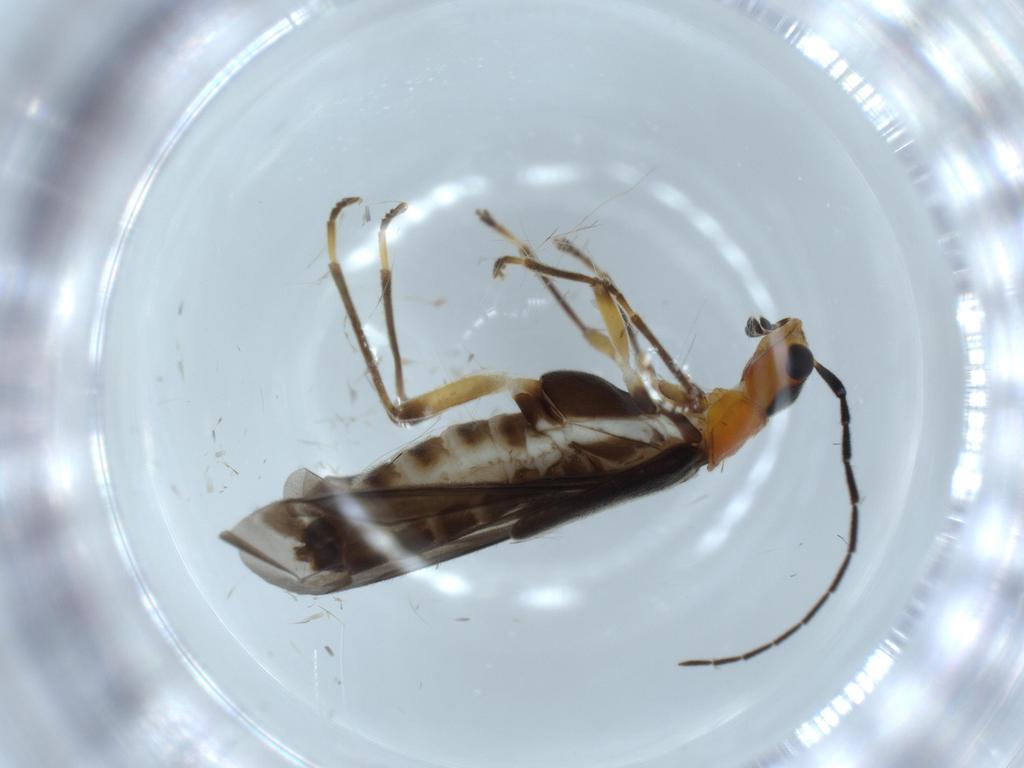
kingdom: Animalia
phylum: Arthropoda
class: Insecta
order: Coleoptera
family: Cantharidae
